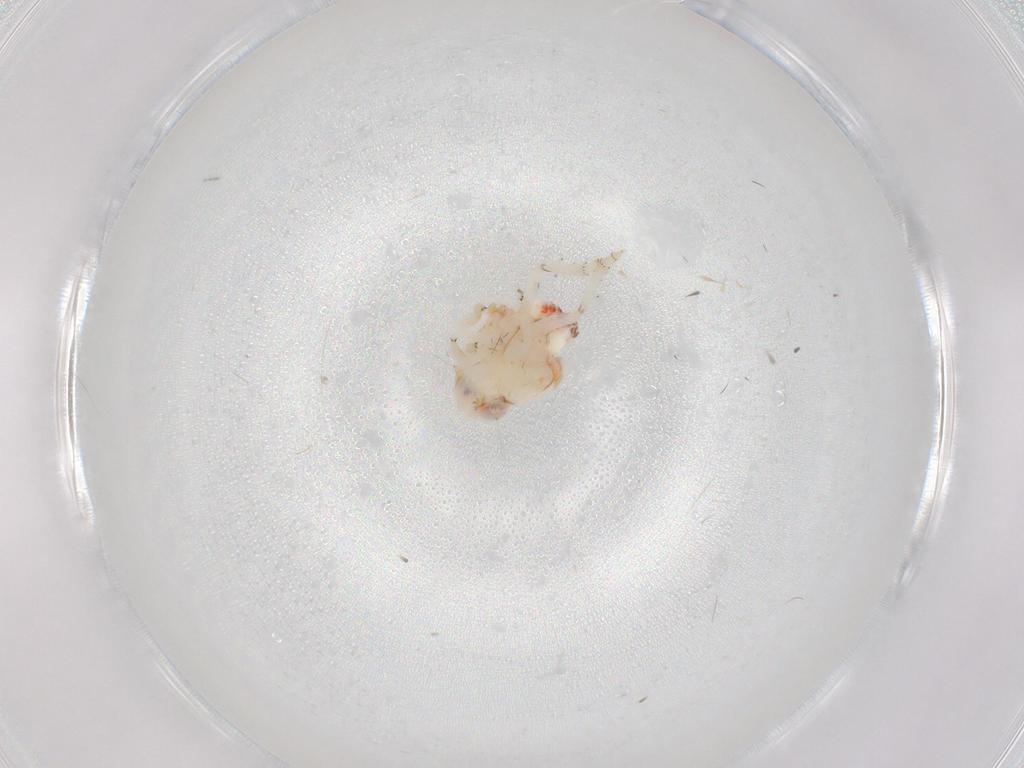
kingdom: Animalia
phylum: Arthropoda
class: Insecta
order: Hemiptera
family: Nogodinidae
